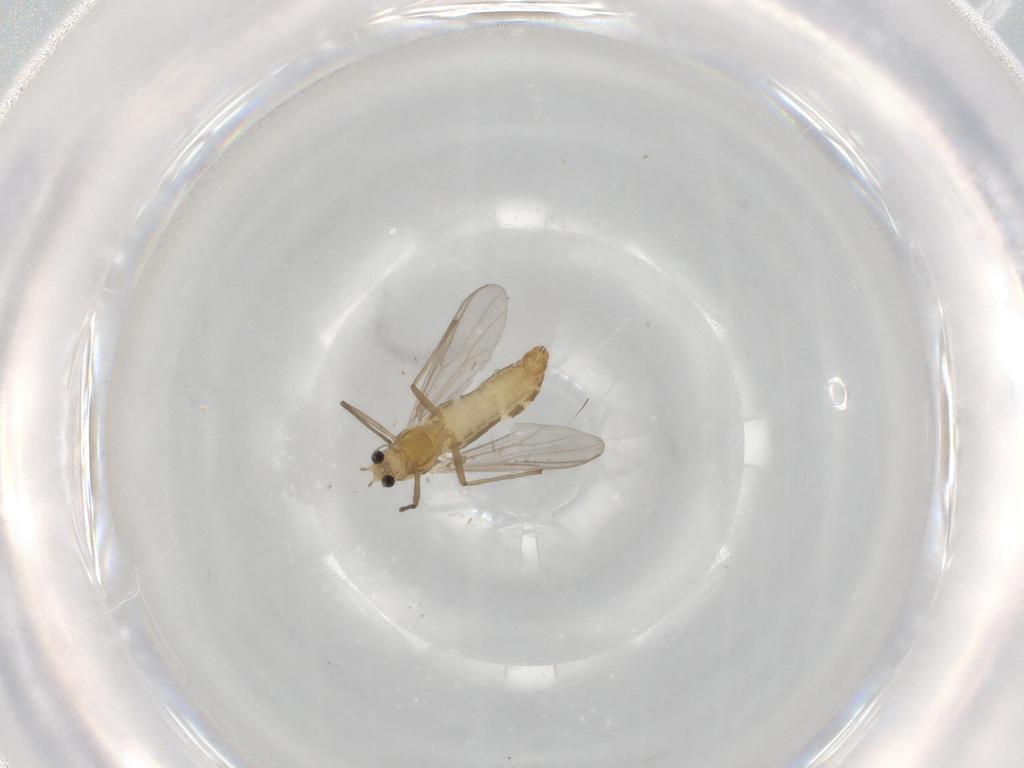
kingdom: Animalia
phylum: Arthropoda
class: Insecta
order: Diptera
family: Chironomidae
